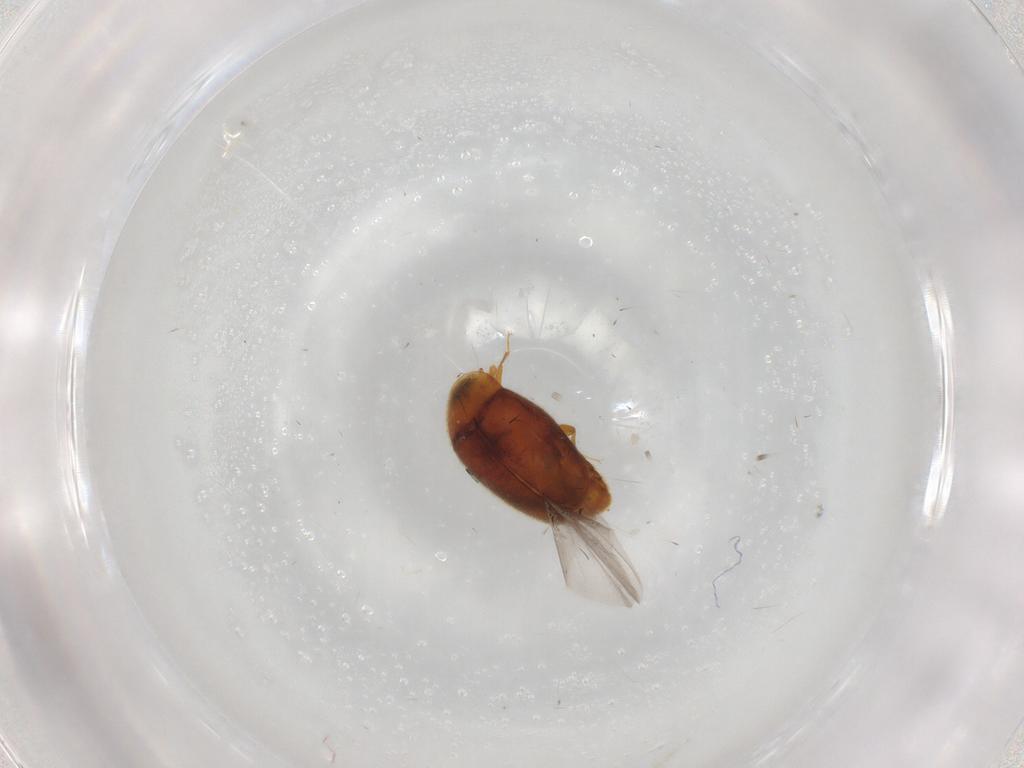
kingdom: Animalia
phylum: Arthropoda
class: Insecta
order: Coleoptera
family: Corylophidae
